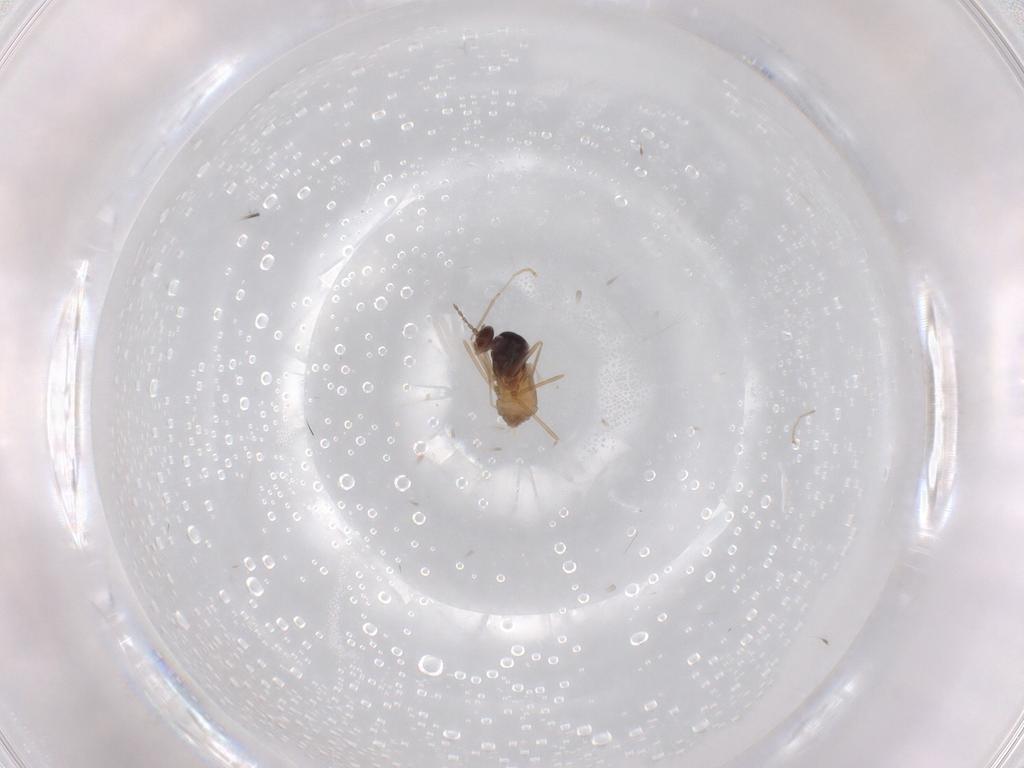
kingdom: Animalia
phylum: Arthropoda
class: Insecta
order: Diptera
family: Cecidomyiidae
